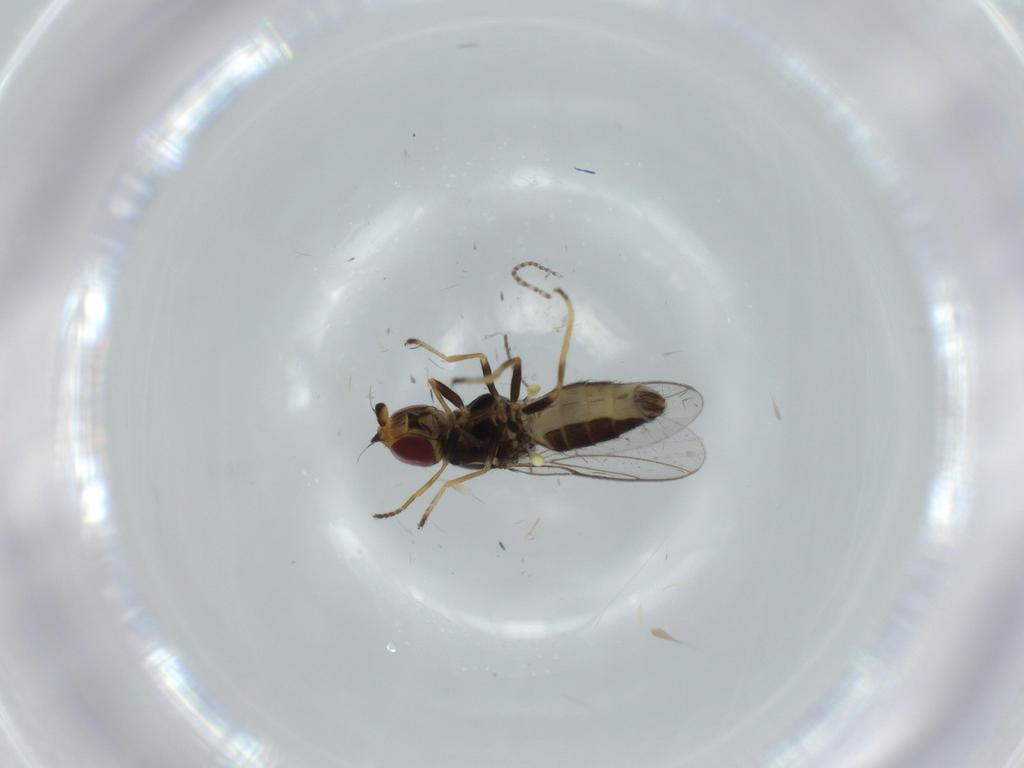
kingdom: Animalia
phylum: Arthropoda
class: Insecta
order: Diptera
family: Chloropidae
